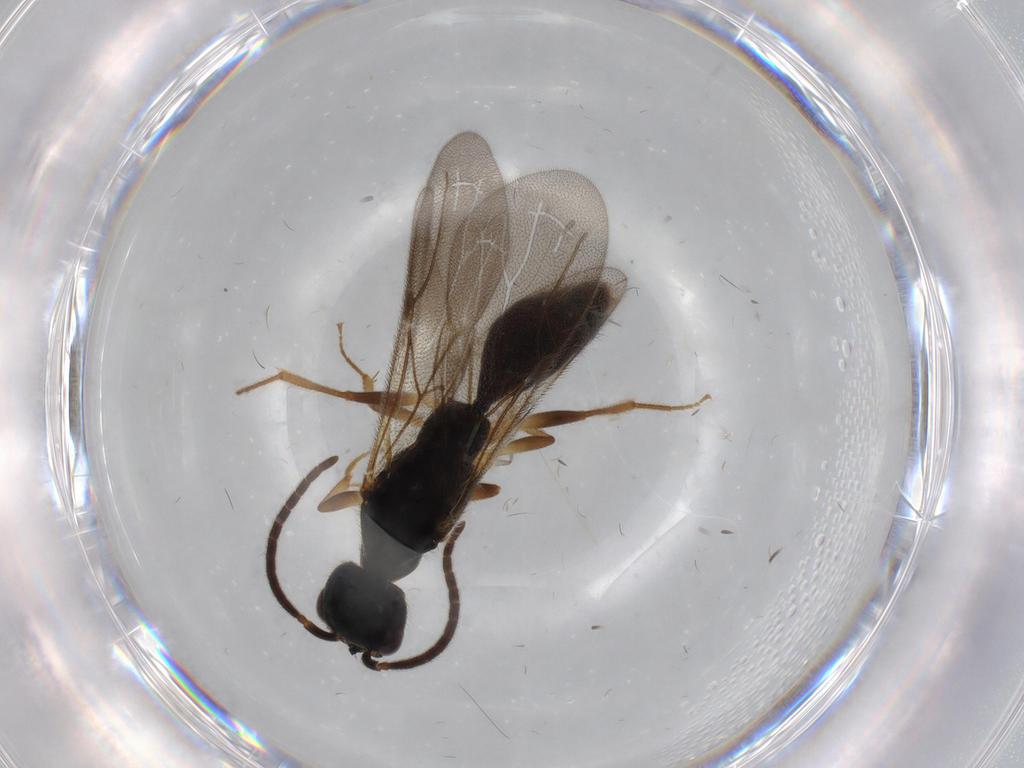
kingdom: Animalia
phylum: Arthropoda
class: Insecta
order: Hymenoptera
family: Bethylidae
